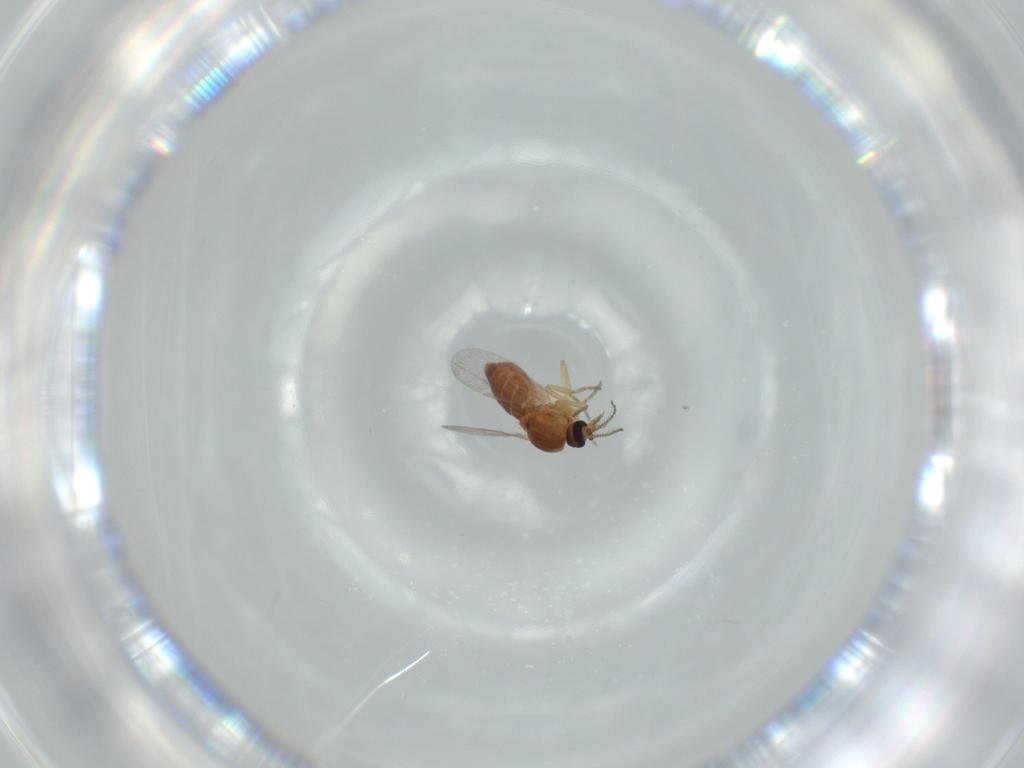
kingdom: Animalia
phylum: Arthropoda
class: Insecta
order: Diptera
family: Ceratopogonidae
